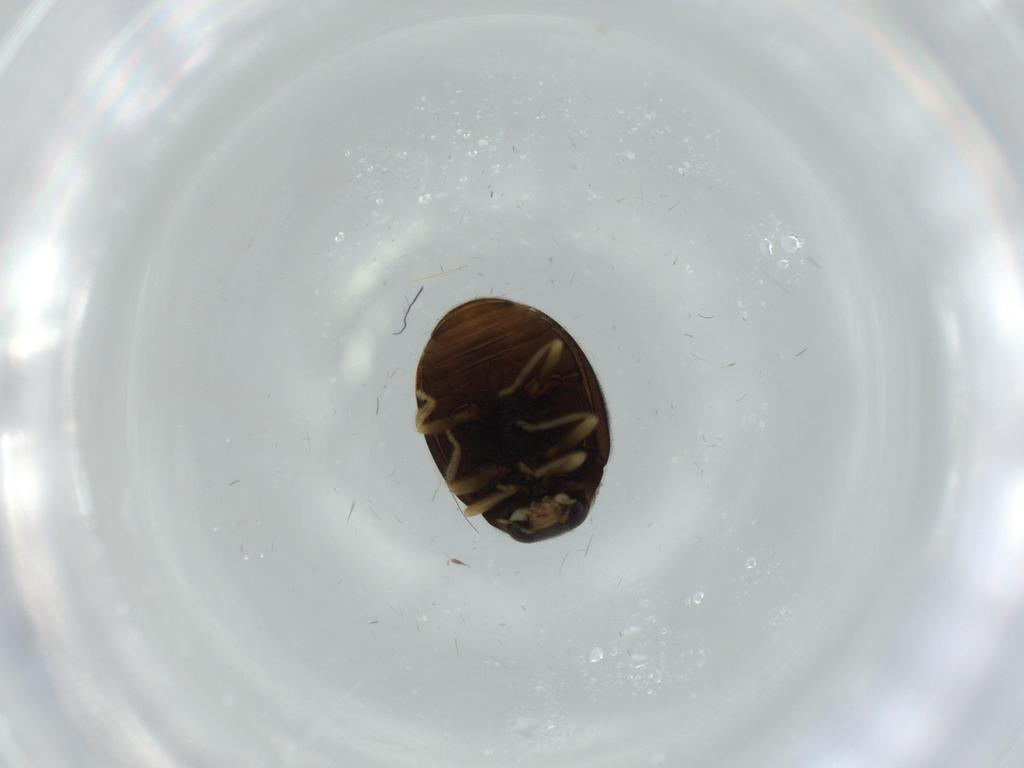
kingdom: Animalia
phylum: Arthropoda
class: Insecta
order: Coleoptera
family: Coccinellidae
